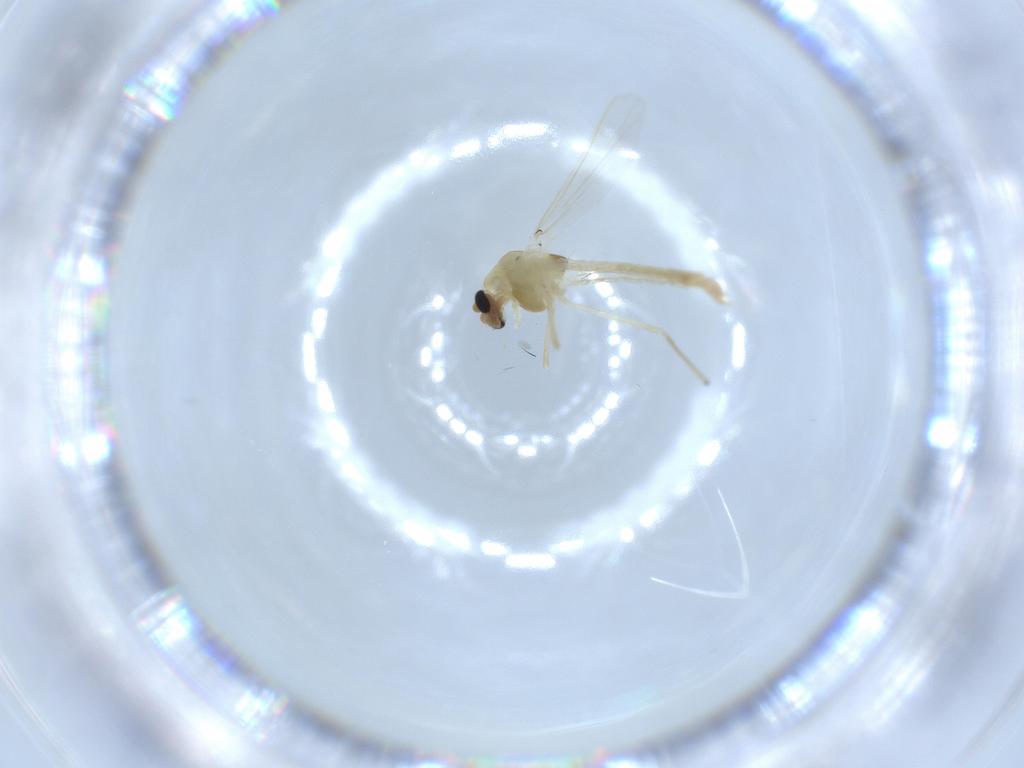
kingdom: Animalia
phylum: Arthropoda
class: Insecta
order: Diptera
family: Chironomidae
